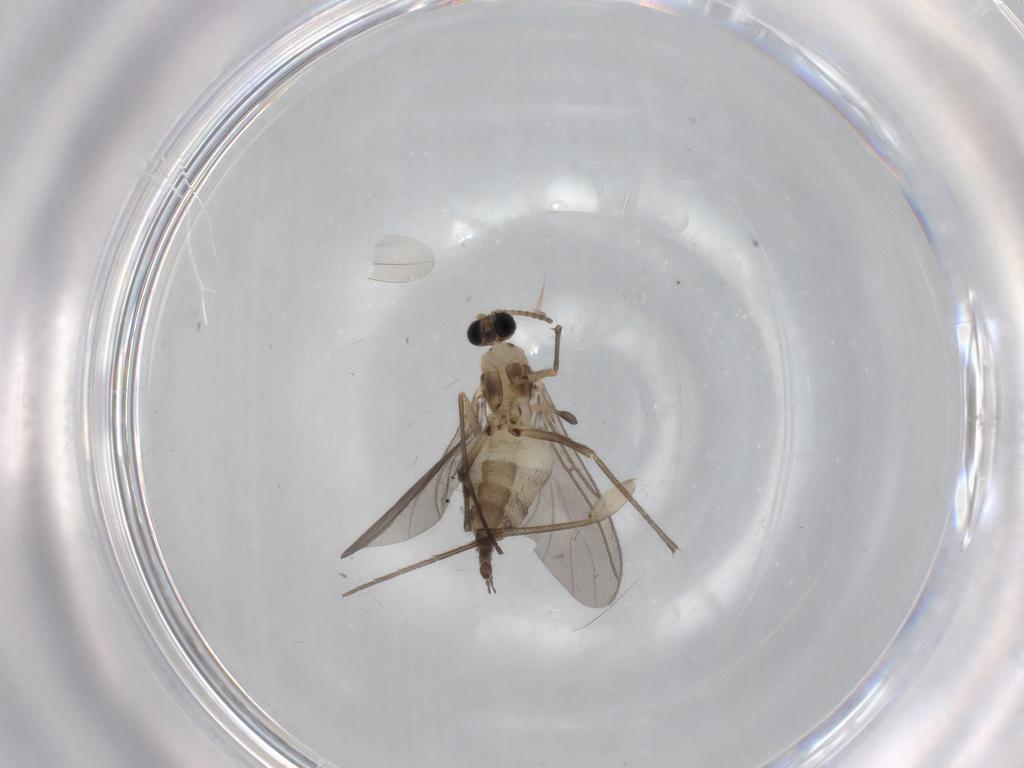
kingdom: Animalia
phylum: Arthropoda
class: Insecta
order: Diptera
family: Sciaridae
